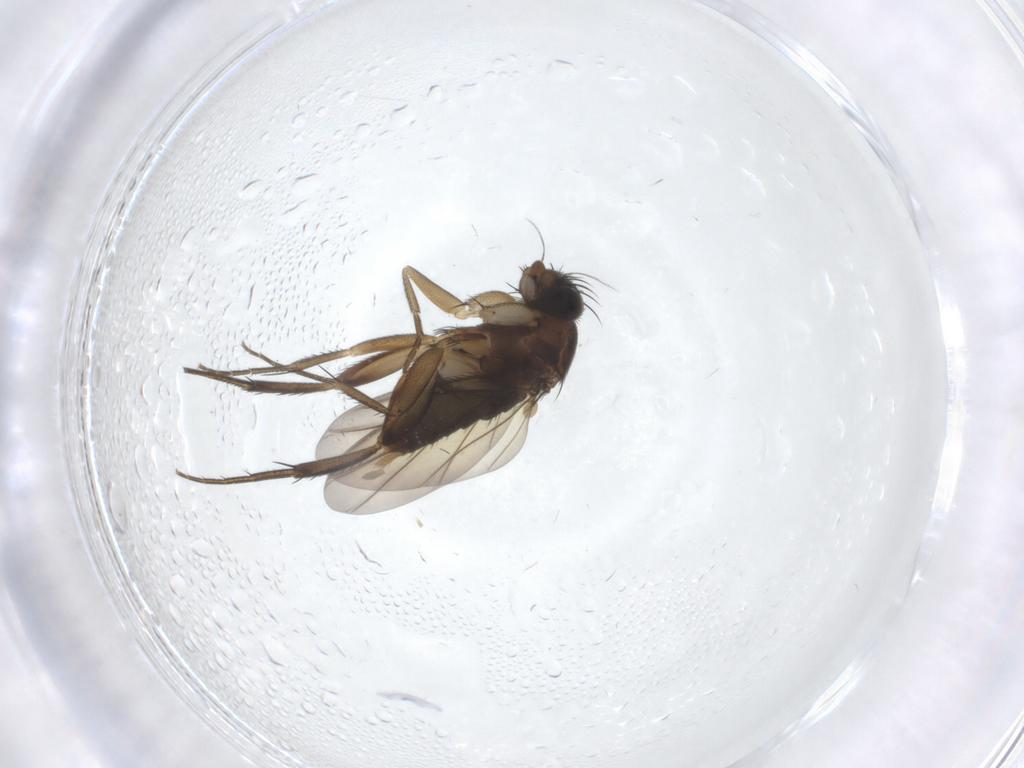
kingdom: Animalia
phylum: Arthropoda
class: Insecta
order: Diptera
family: Phoridae
